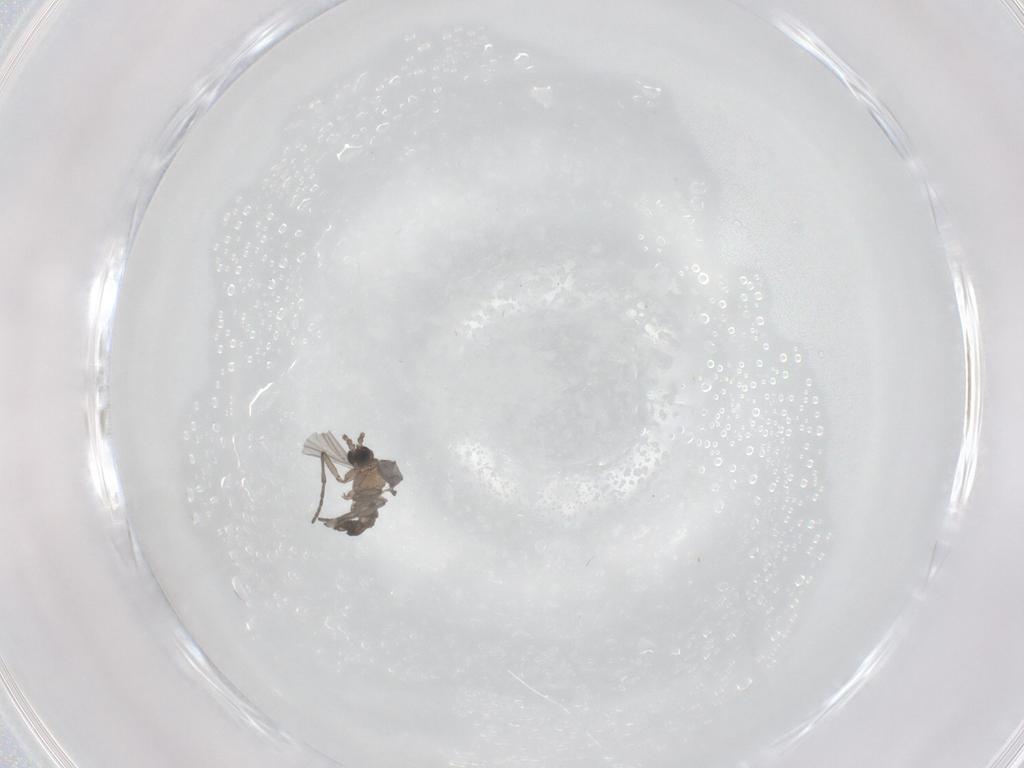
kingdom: Animalia
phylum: Arthropoda
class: Insecta
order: Diptera
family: Sciaridae
